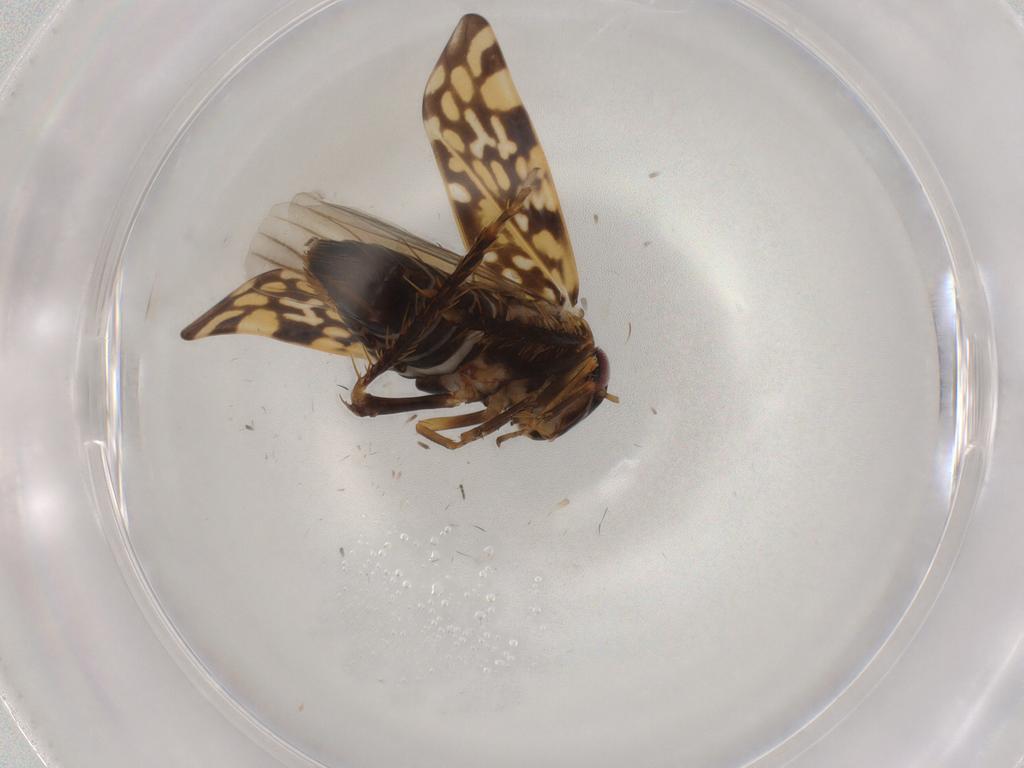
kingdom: Animalia
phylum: Arthropoda
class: Insecta
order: Hemiptera
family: Cicadellidae
